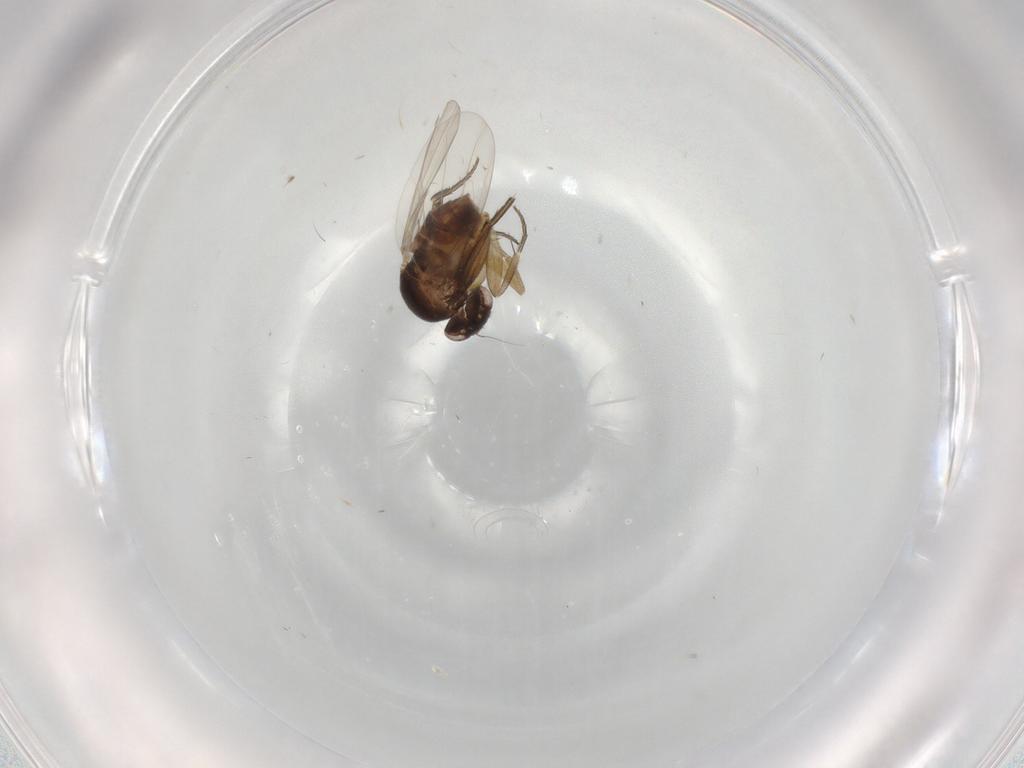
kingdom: Animalia
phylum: Arthropoda
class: Insecta
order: Diptera
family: Phoridae
